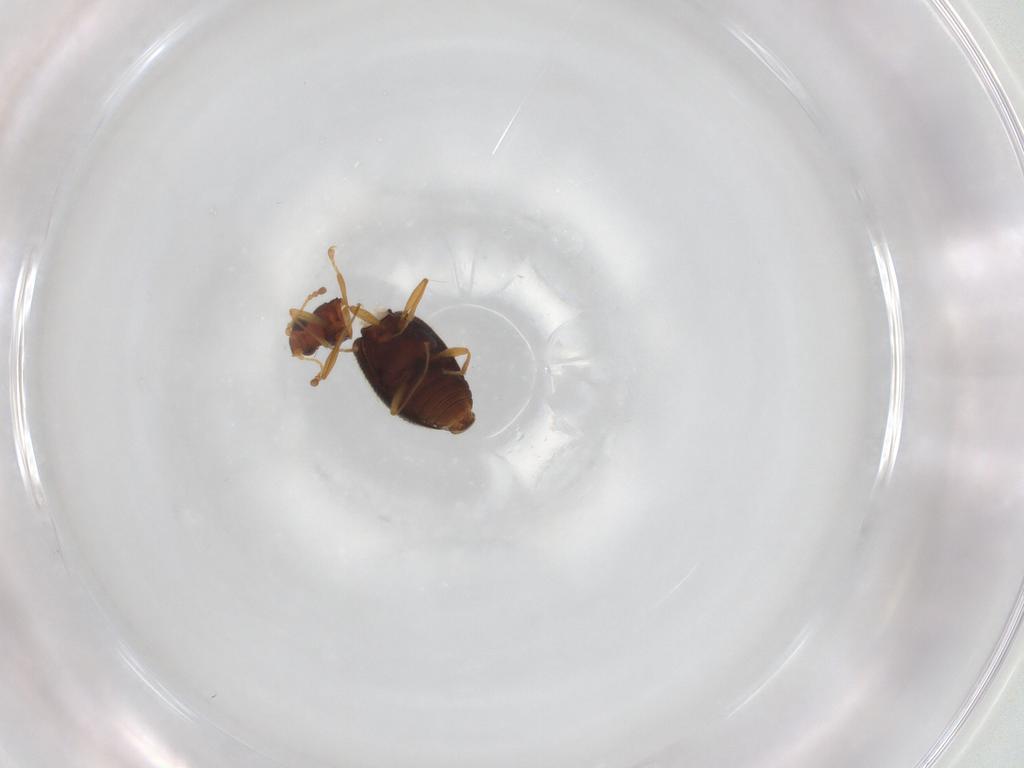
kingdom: Animalia
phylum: Arthropoda
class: Insecta
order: Coleoptera
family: Latridiidae
